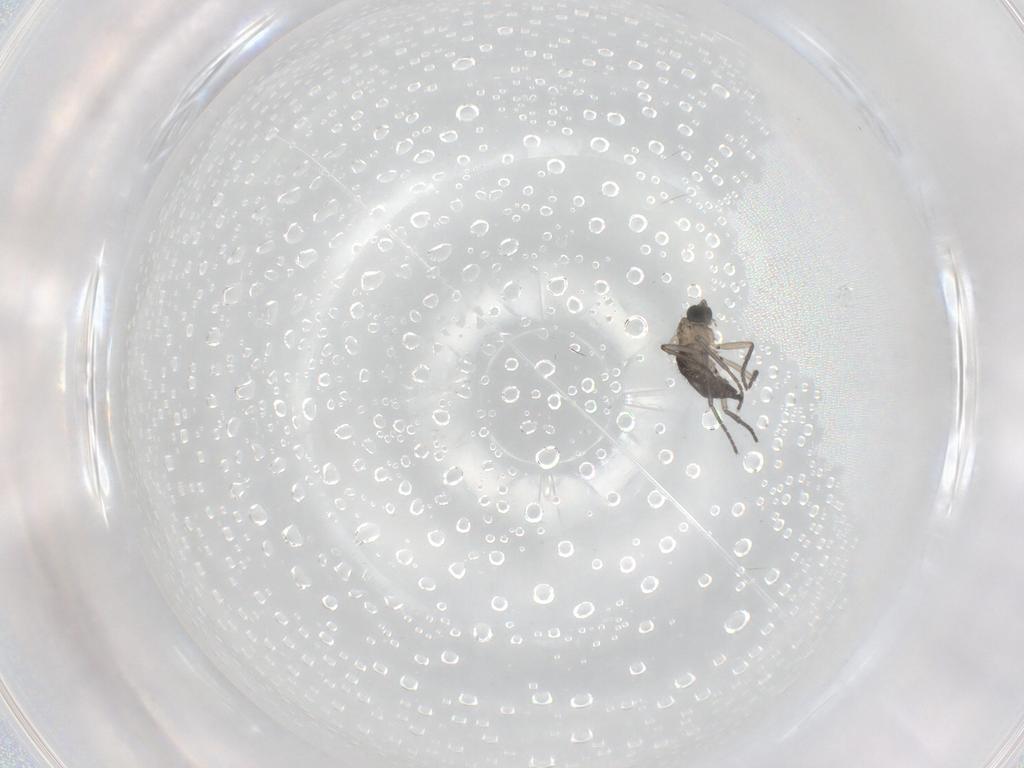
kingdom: Animalia
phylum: Arthropoda
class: Insecta
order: Diptera
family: Sciaridae
